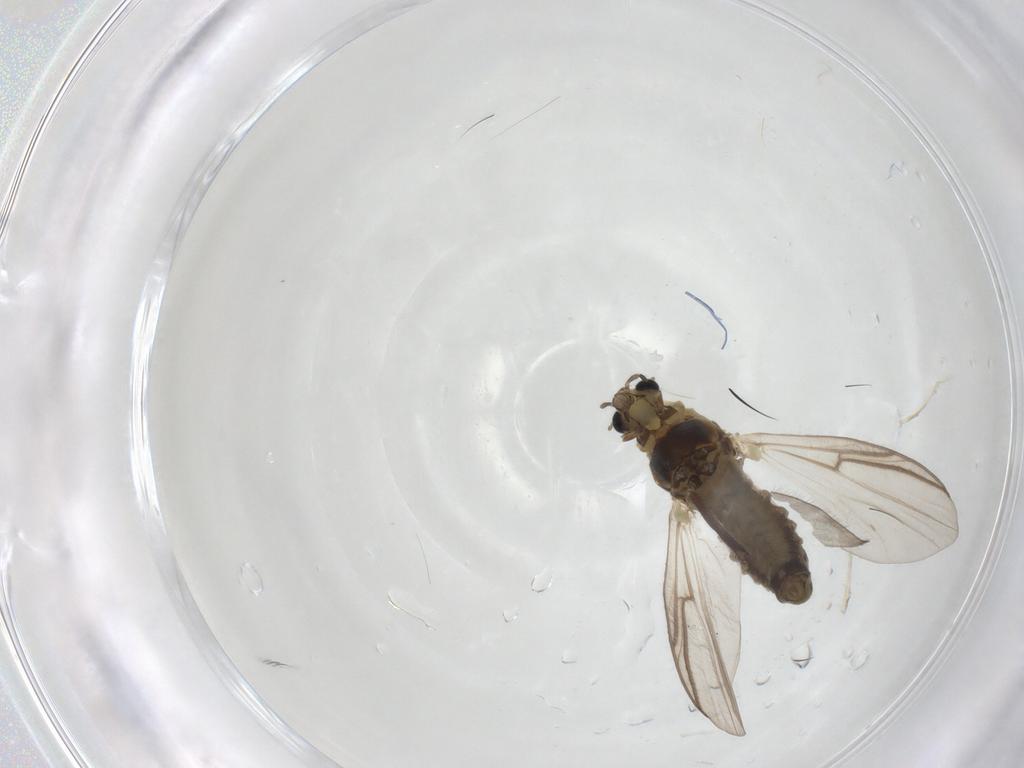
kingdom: Animalia
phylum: Arthropoda
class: Insecta
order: Diptera
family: Chironomidae
